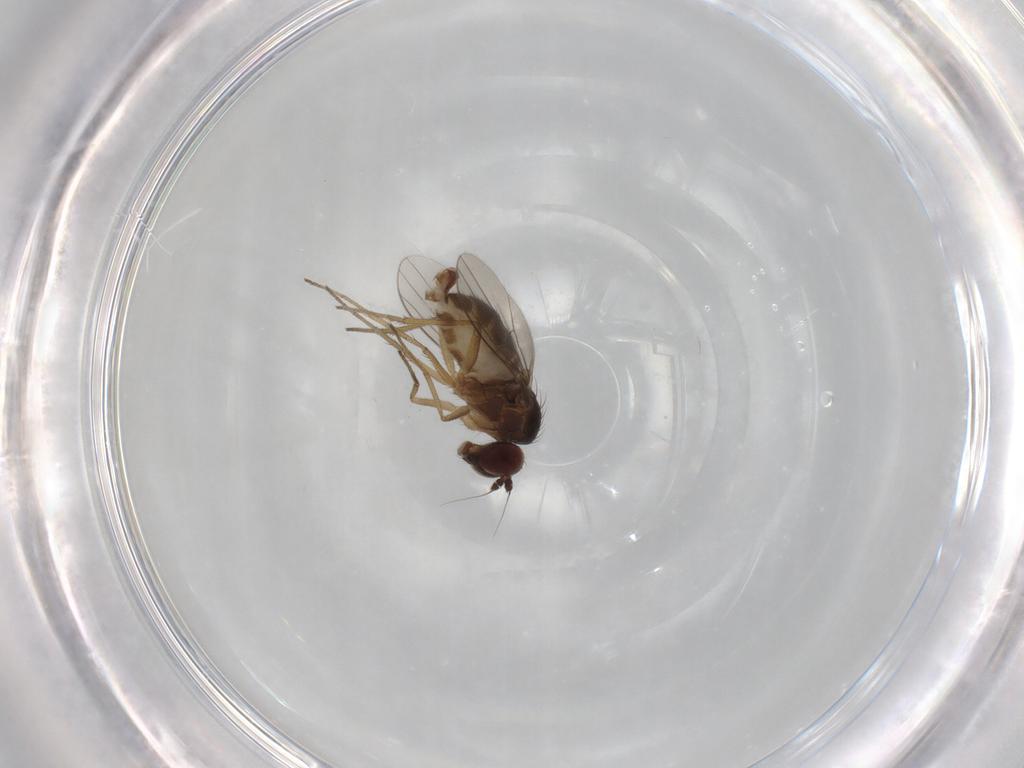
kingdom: Animalia
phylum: Arthropoda
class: Insecta
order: Diptera
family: Dolichopodidae
